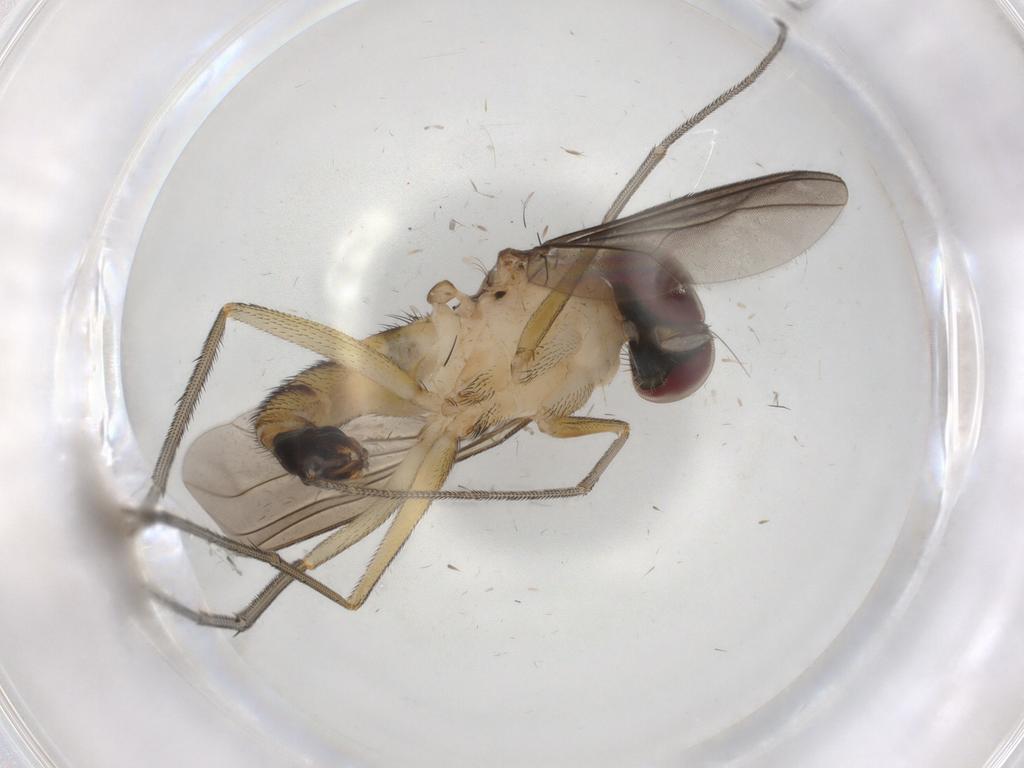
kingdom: Animalia
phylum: Arthropoda
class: Insecta
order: Diptera
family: Dolichopodidae
